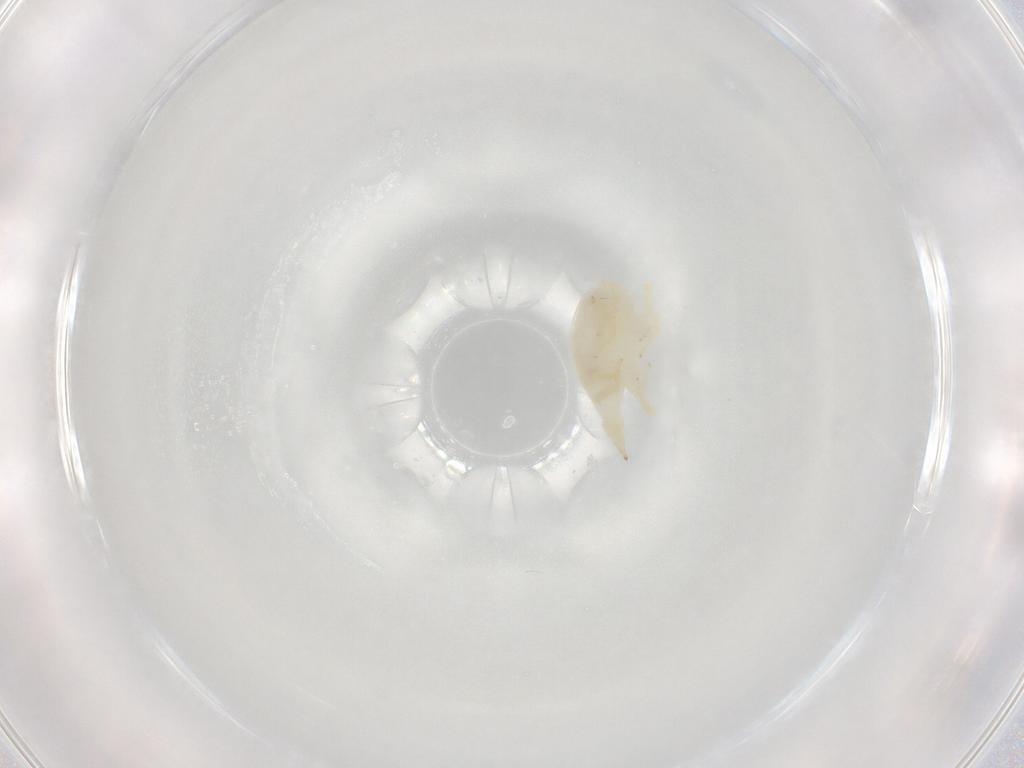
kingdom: Animalia
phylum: Arthropoda
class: Arachnida
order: Trombidiformes
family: Bdellidae
